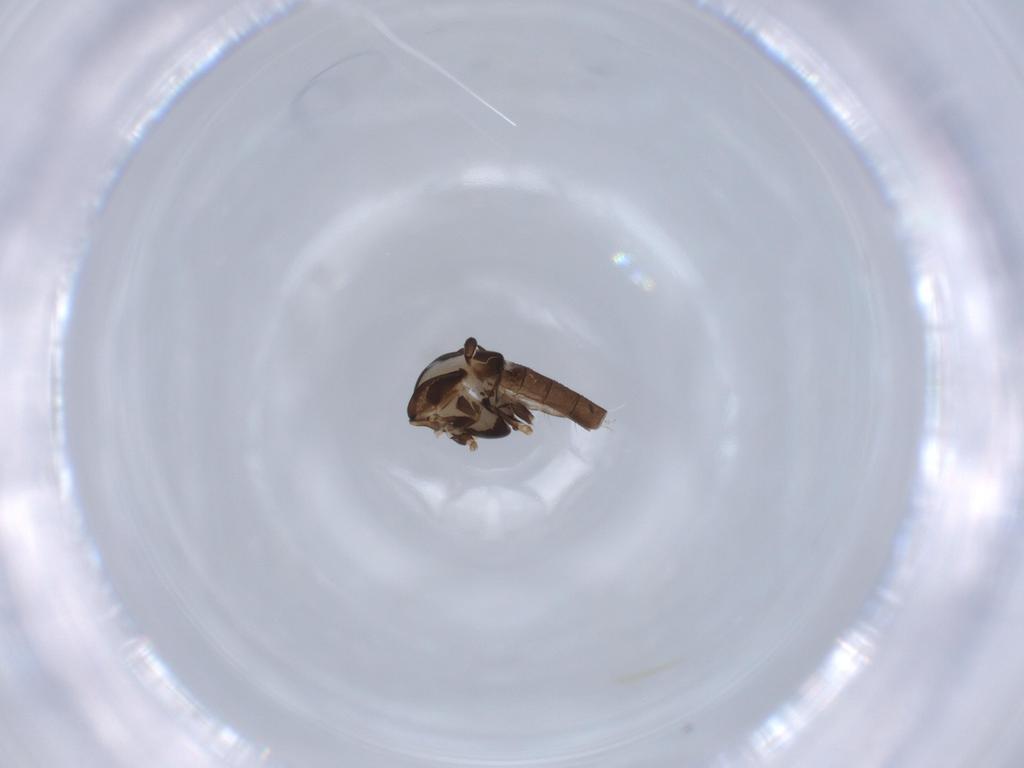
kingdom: Animalia
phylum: Arthropoda
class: Insecta
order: Diptera
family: Chironomidae
